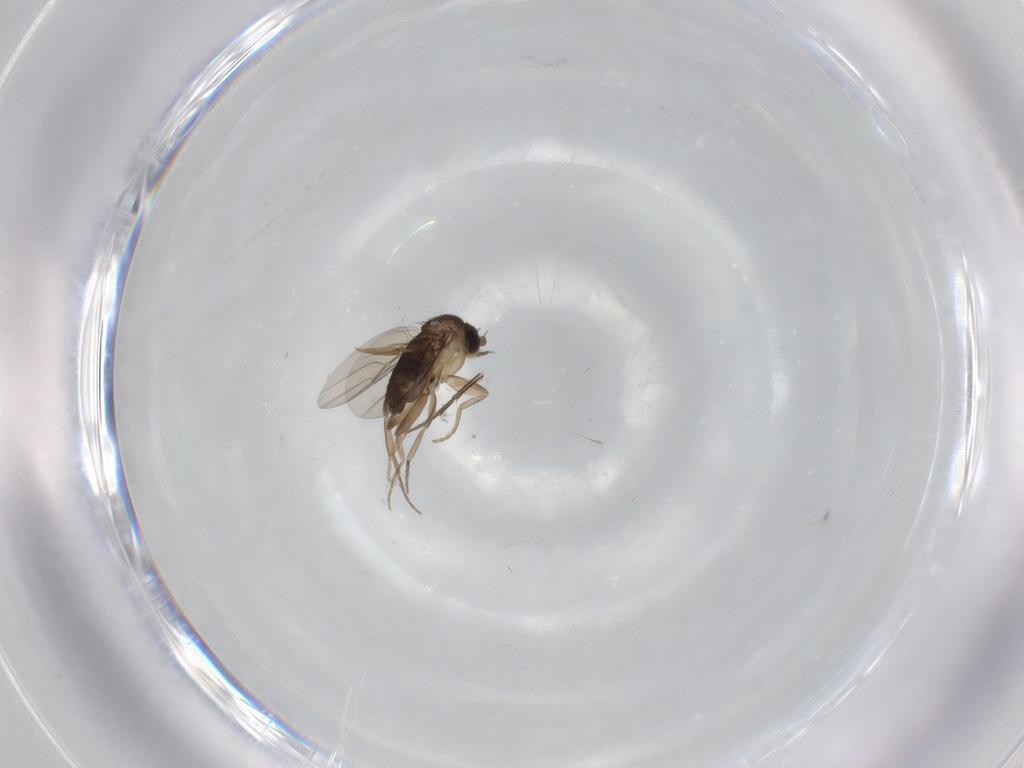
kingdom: Animalia
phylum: Arthropoda
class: Insecta
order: Diptera
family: Phoridae
